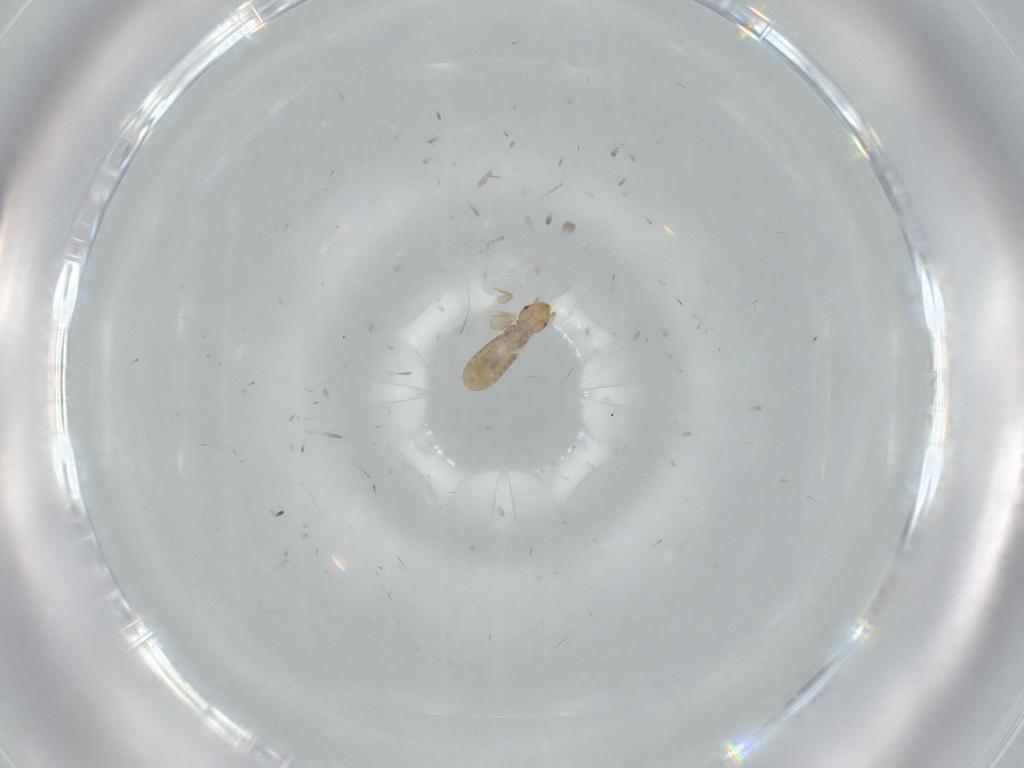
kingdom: Animalia
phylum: Arthropoda
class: Insecta
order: Psocodea
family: Liposcelididae
